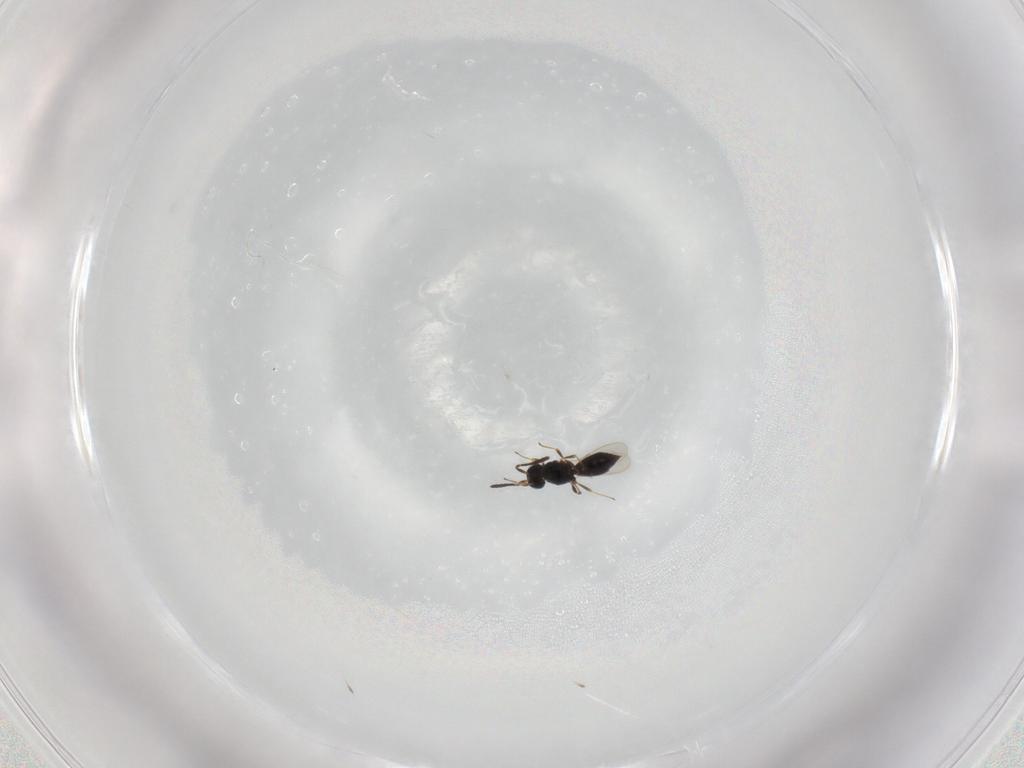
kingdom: Animalia
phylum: Arthropoda
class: Insecta
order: Hymenoptera
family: Scelionidae
